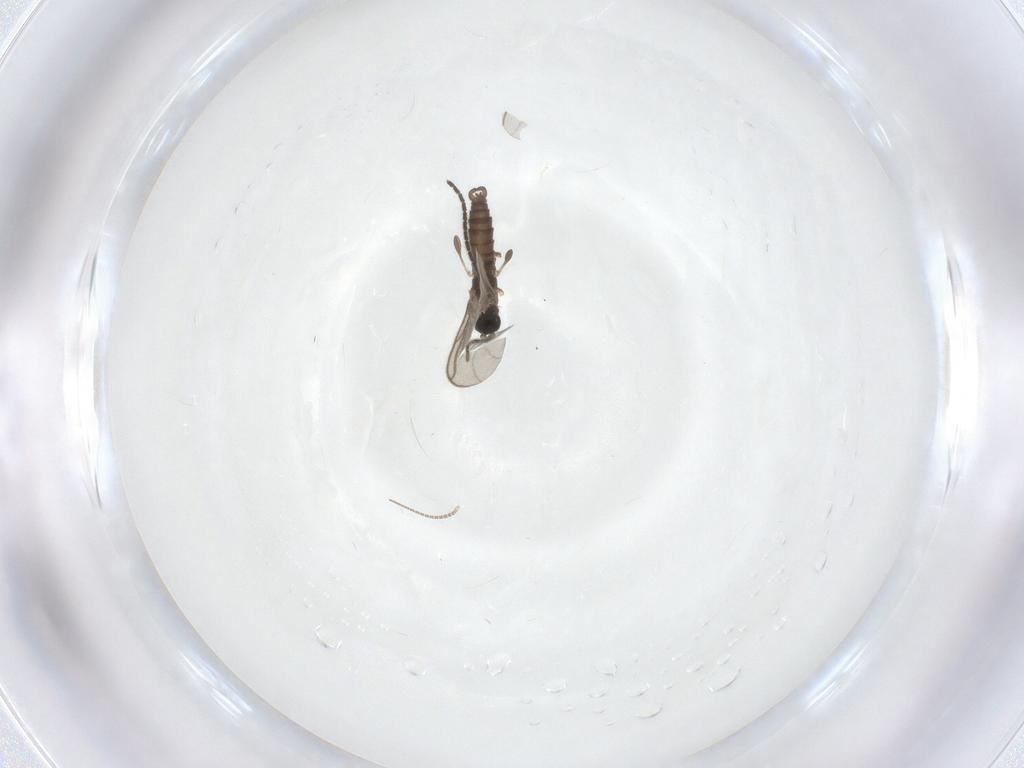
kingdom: Animalia
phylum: Arthropoda
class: Insecta
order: Diptera
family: Sciaridae
